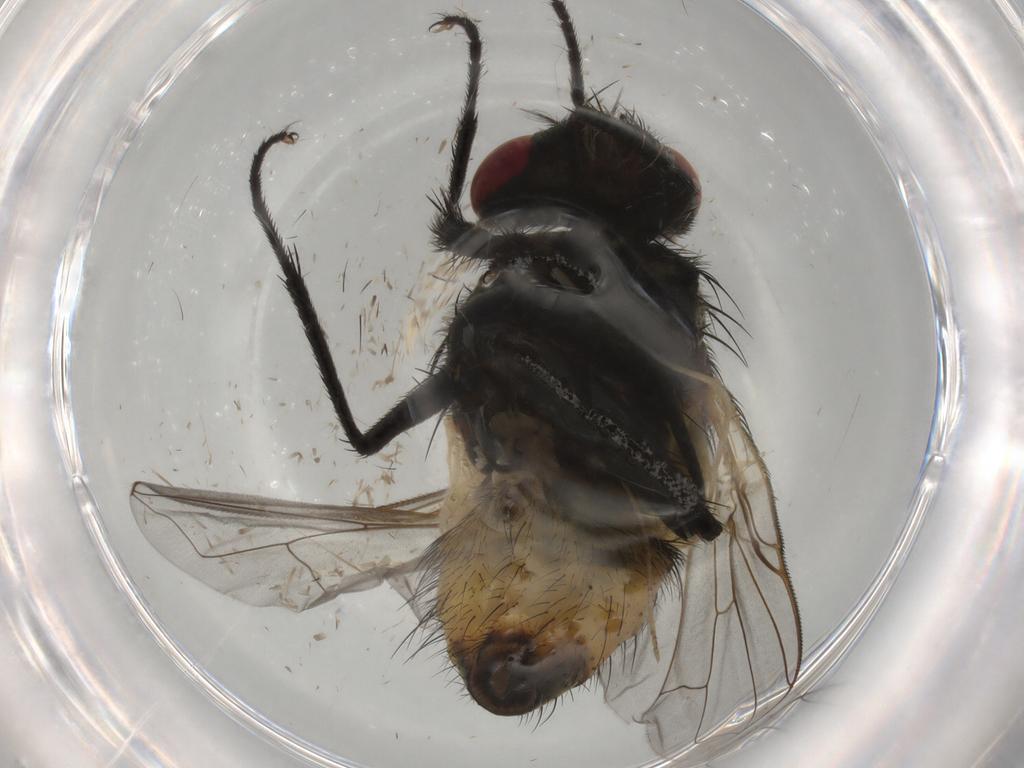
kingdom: Animalia
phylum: Arthropoda
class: Insecta
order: Diptera
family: Muscidae
